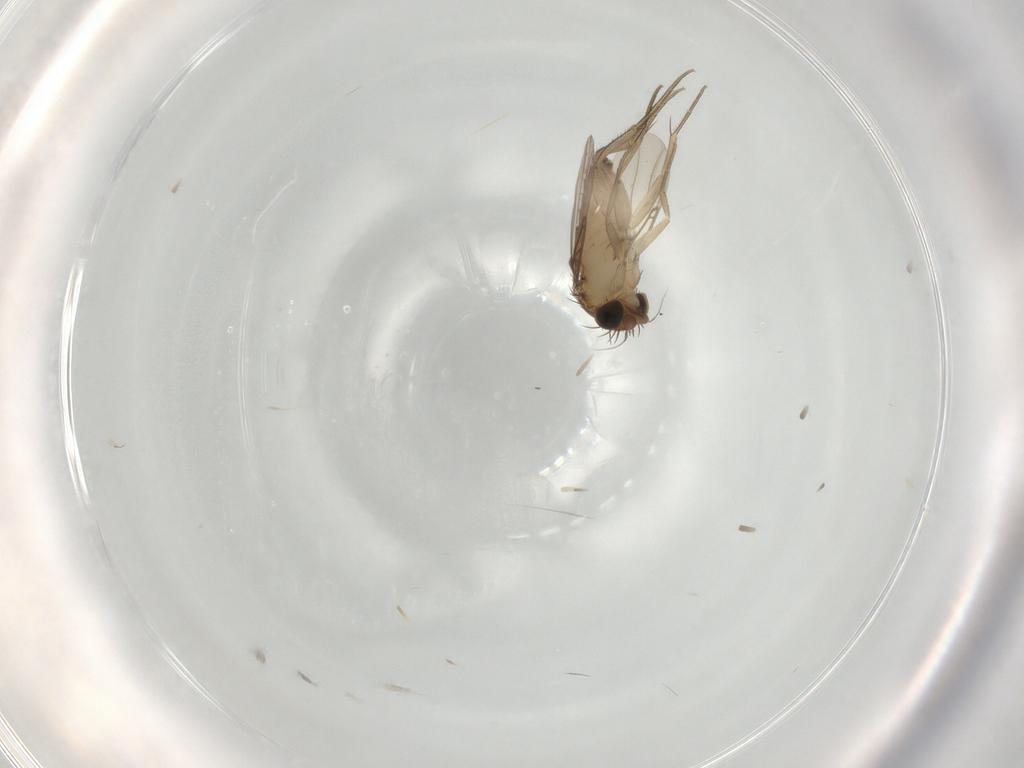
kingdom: Animalia
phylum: Arthropoda
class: Insecta
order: Diptera
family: Phoridae
